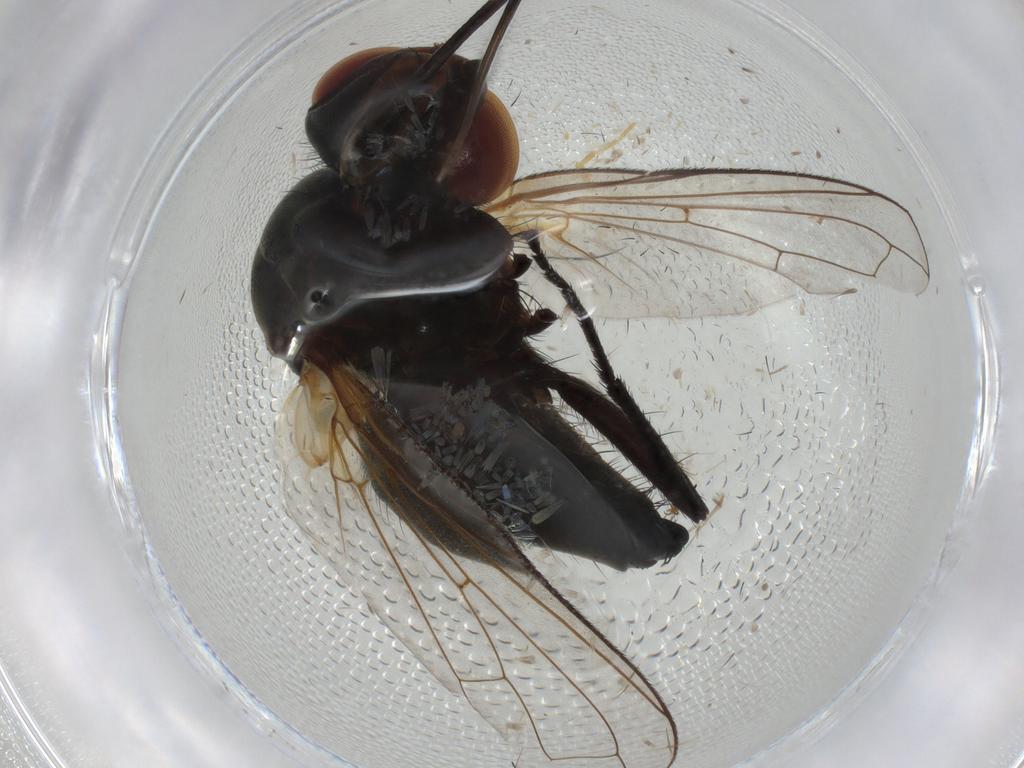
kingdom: Animalia
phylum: Arthropoda
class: Insecta
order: Diptera
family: Tachinidae
